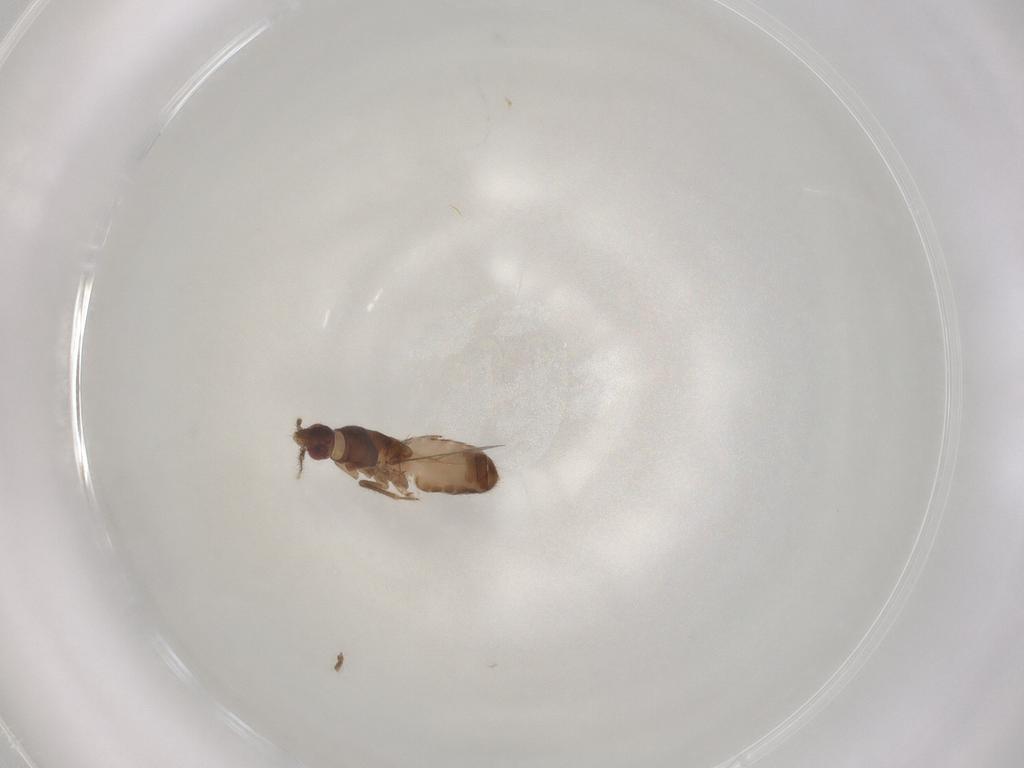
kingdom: Animalia
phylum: Arthropoda
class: Insecta
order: Hemiptera
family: Ceratocombidae
